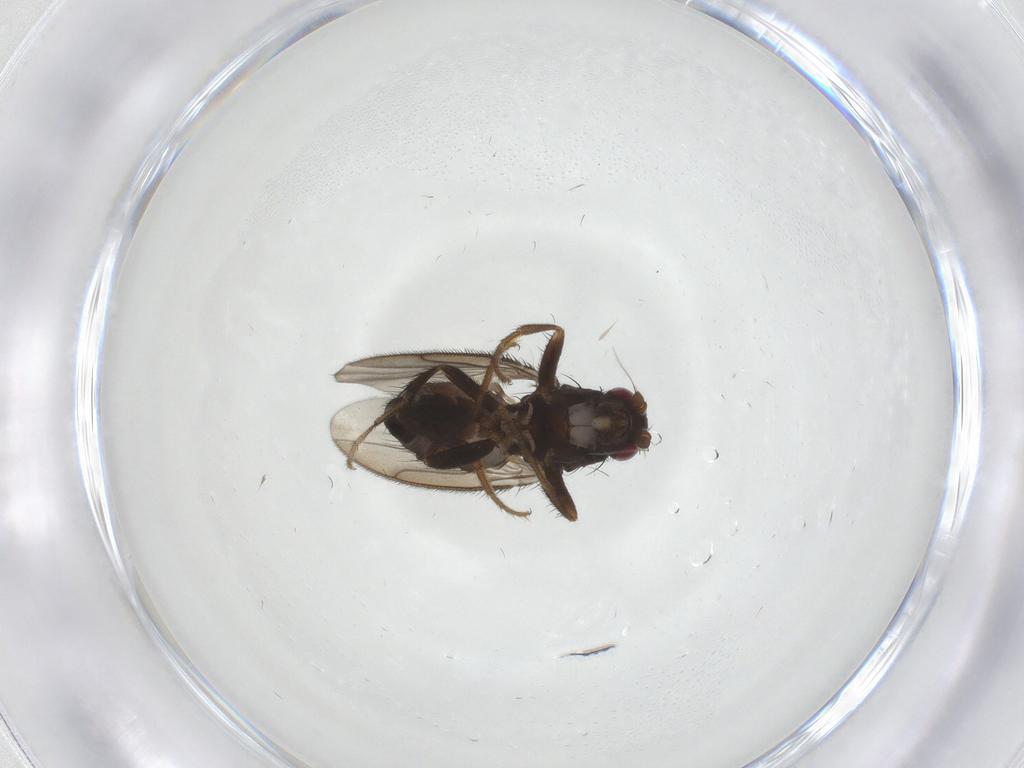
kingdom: Animalia
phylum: Arthropoda
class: Insecta
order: Diptera
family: Sphaeroceridae
